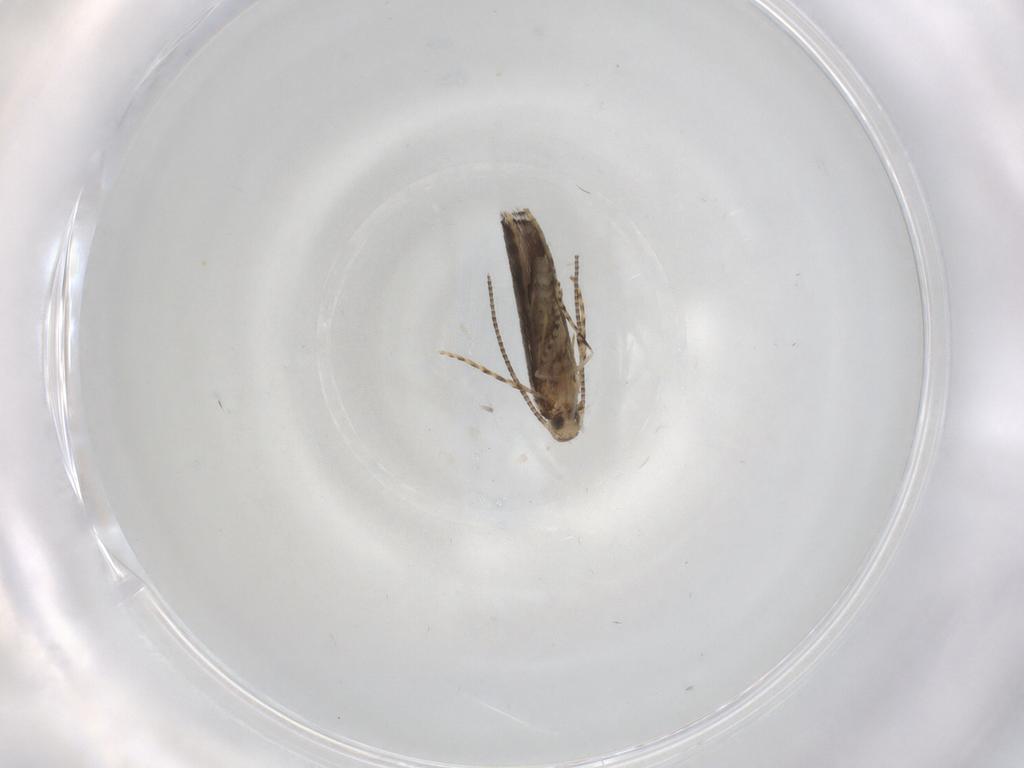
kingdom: Animalia
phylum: Arthropoda
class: Insecta
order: Lepidoptera
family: Gracillariidae
